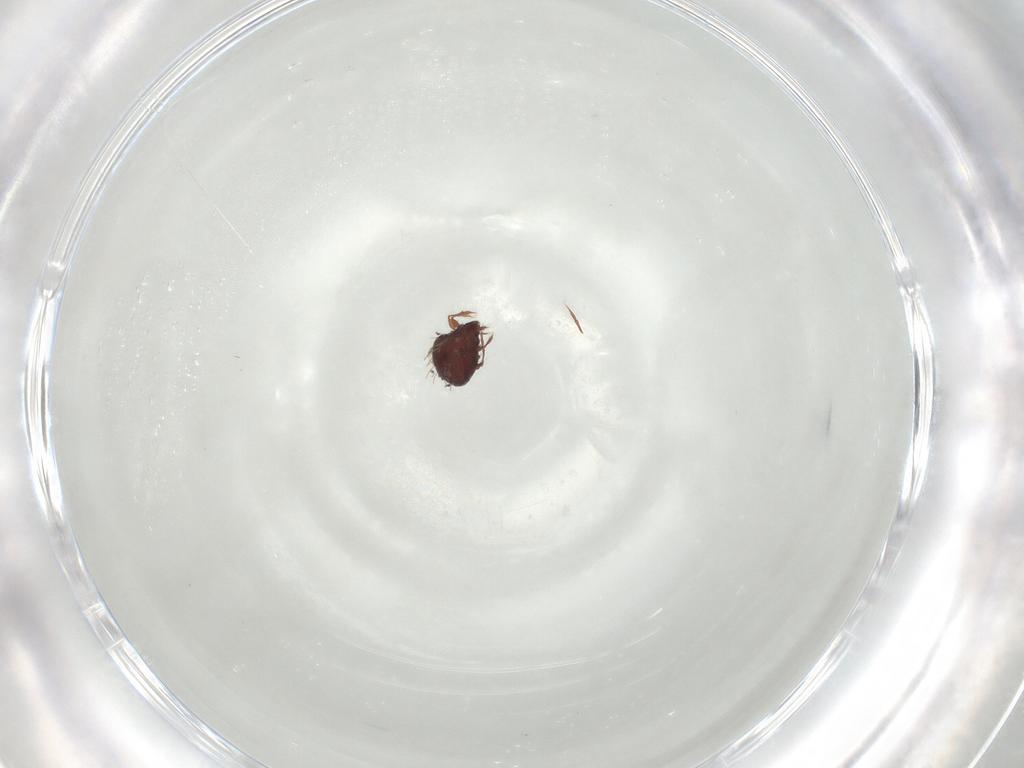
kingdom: Animalia
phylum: Arthropoda
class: Arachnida
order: Sarcoptiformes
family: Caloppiidae
